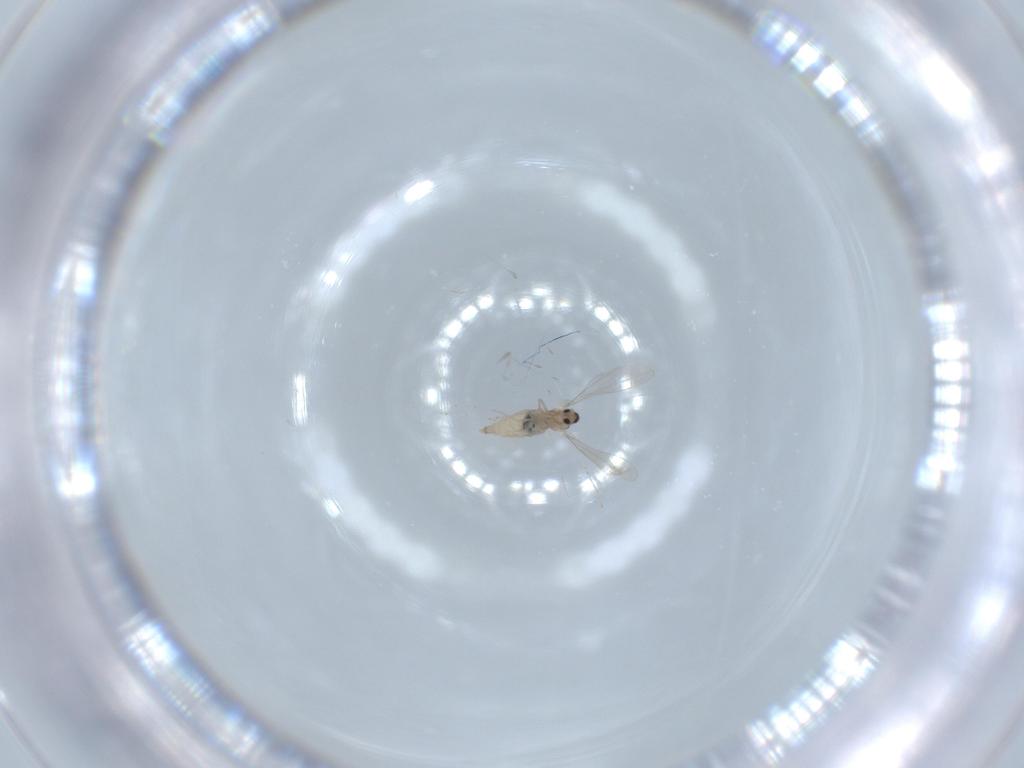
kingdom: Animalia
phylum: Arthropoda
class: Insecta
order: Diptera
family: Cecidomyiidae
